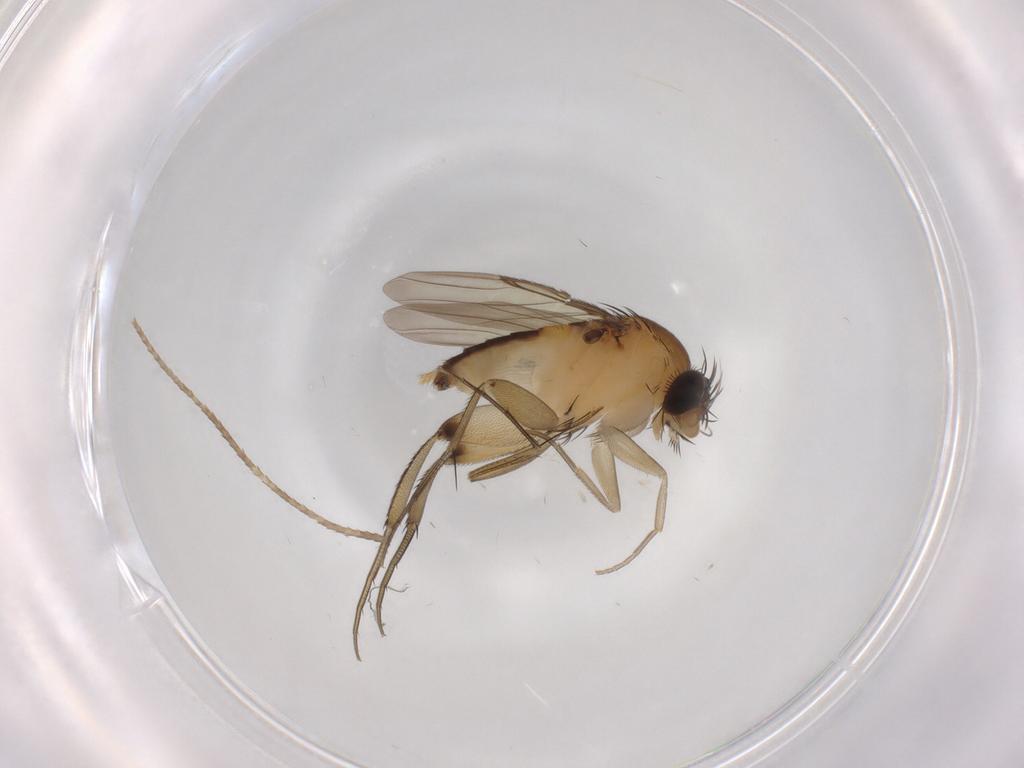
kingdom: Animalia
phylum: Arthropoda
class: Insecta
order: Diptera
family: Phoridae
